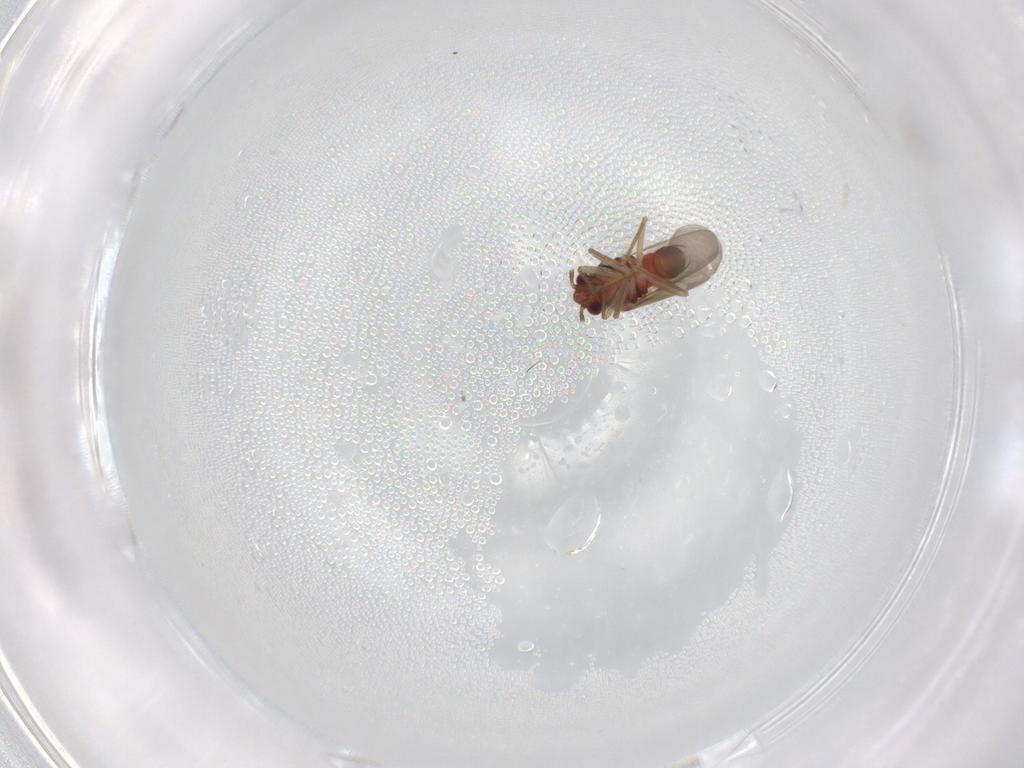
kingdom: Animalia
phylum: Arthropoda
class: Insecta
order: Hemiptera
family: Ceratocombidae
